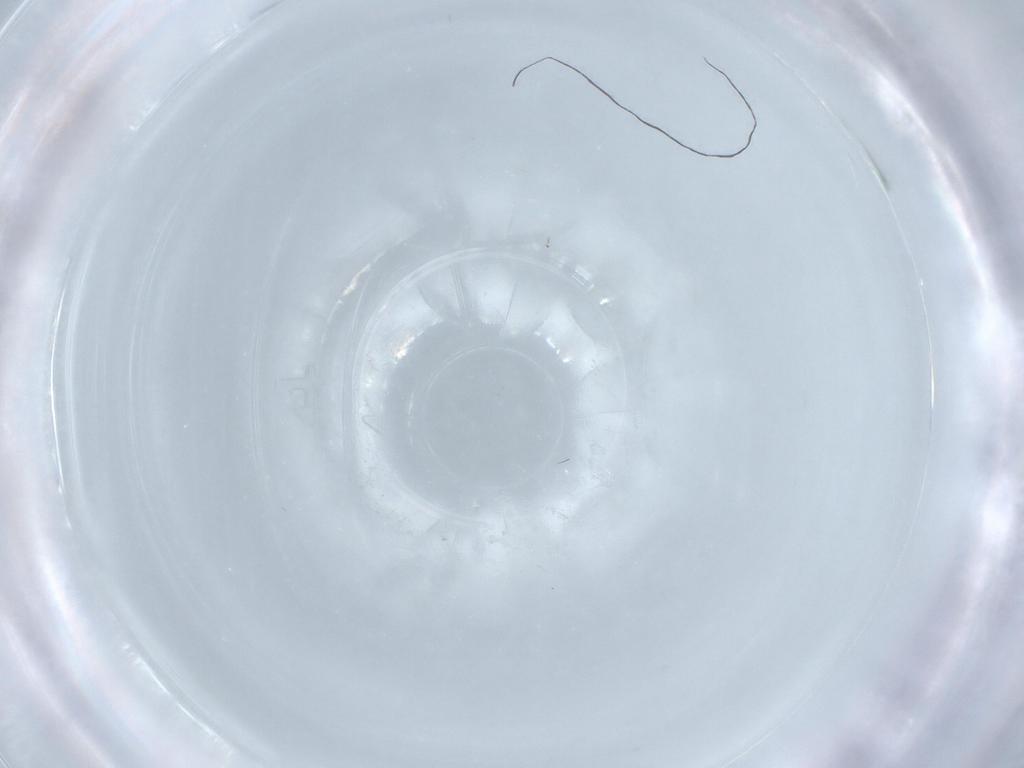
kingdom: Animalia
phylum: Arthropoda
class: Insecta
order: Diptera
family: Cecidomyiidae
